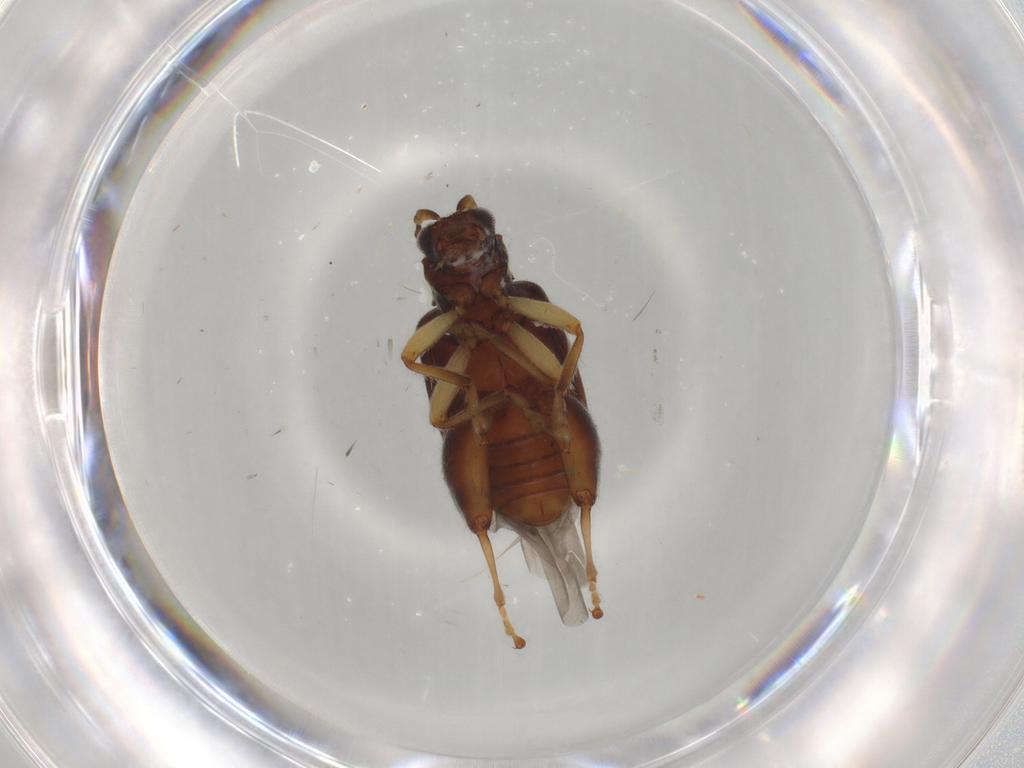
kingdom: Animalia
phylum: Arthropoda
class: Insecta
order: Coleoptera
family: Chrysomelidae
